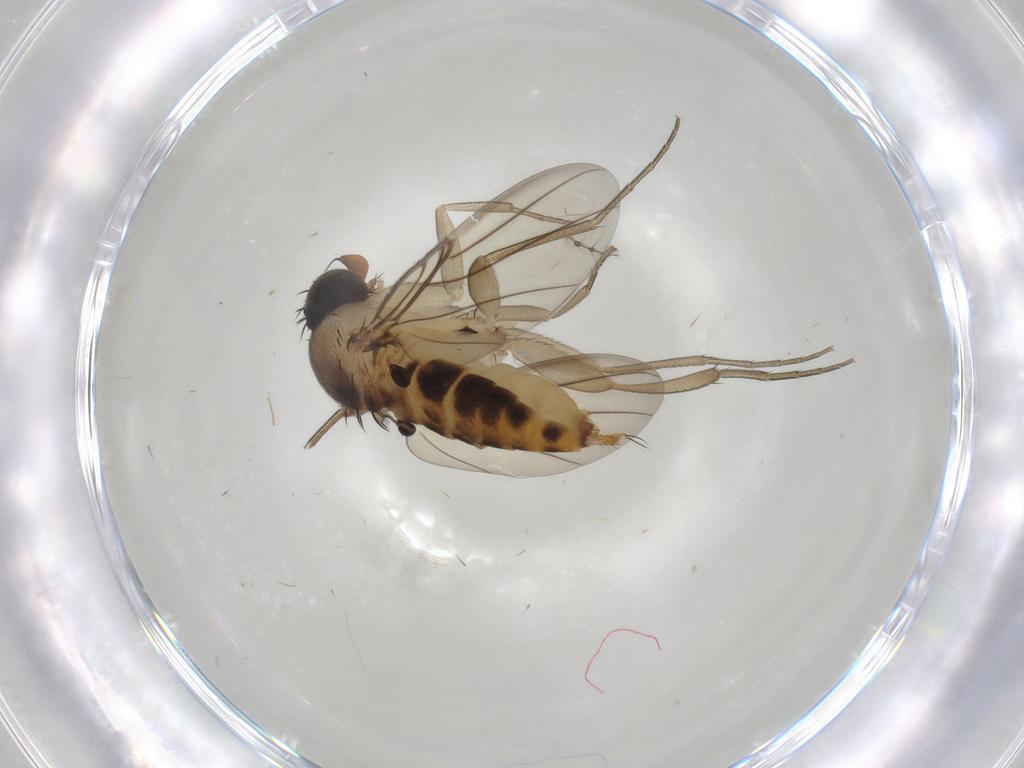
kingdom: Animalia
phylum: Arthropoda
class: Insecta
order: Diptera
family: Phoridae
